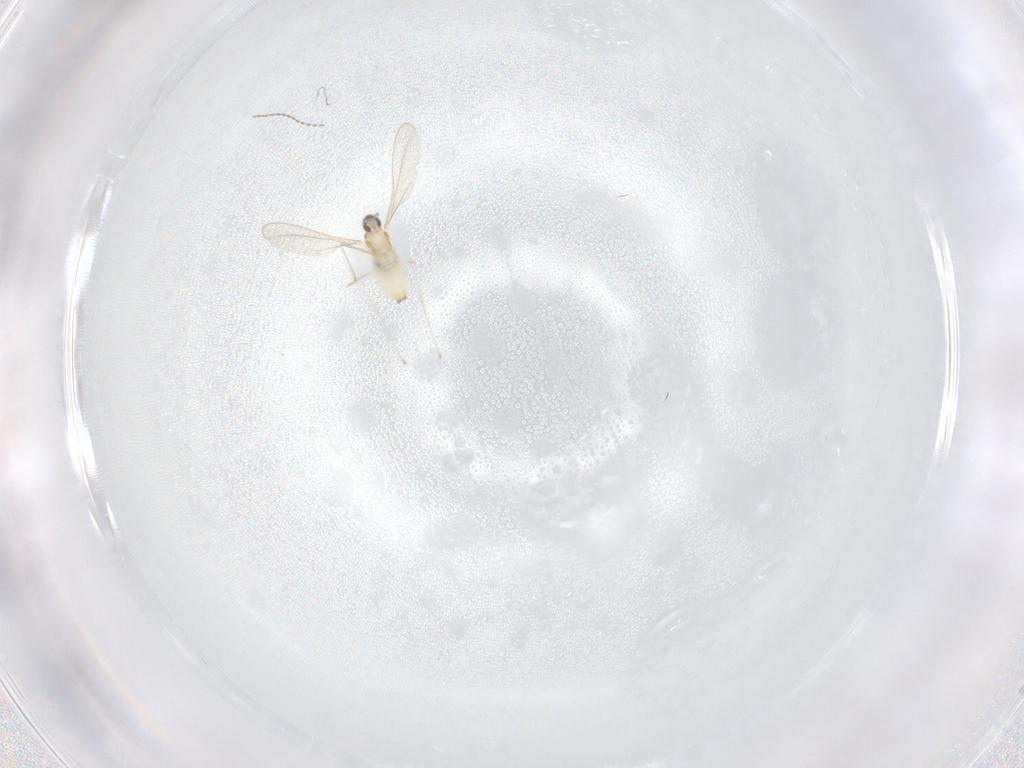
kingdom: Animalia
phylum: Arthropoda
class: Insecta
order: Diptera
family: Cecidomyiidae
